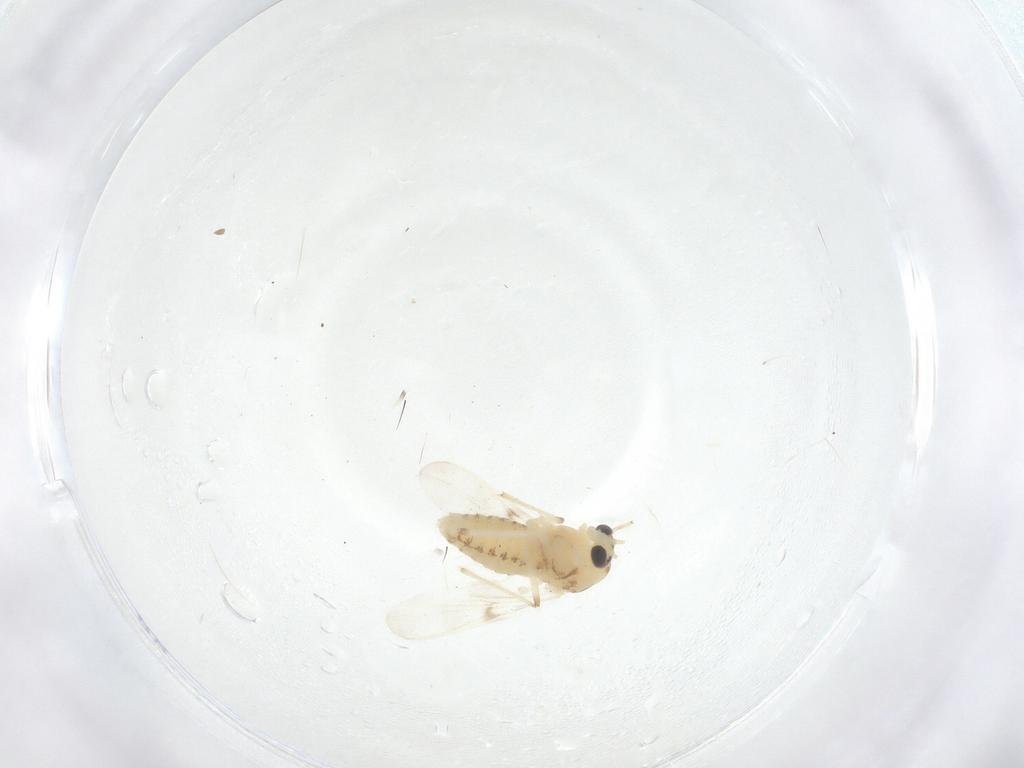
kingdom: Animalia
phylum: Arthropoda
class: Insecta
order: Diptera
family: Chironomidae
